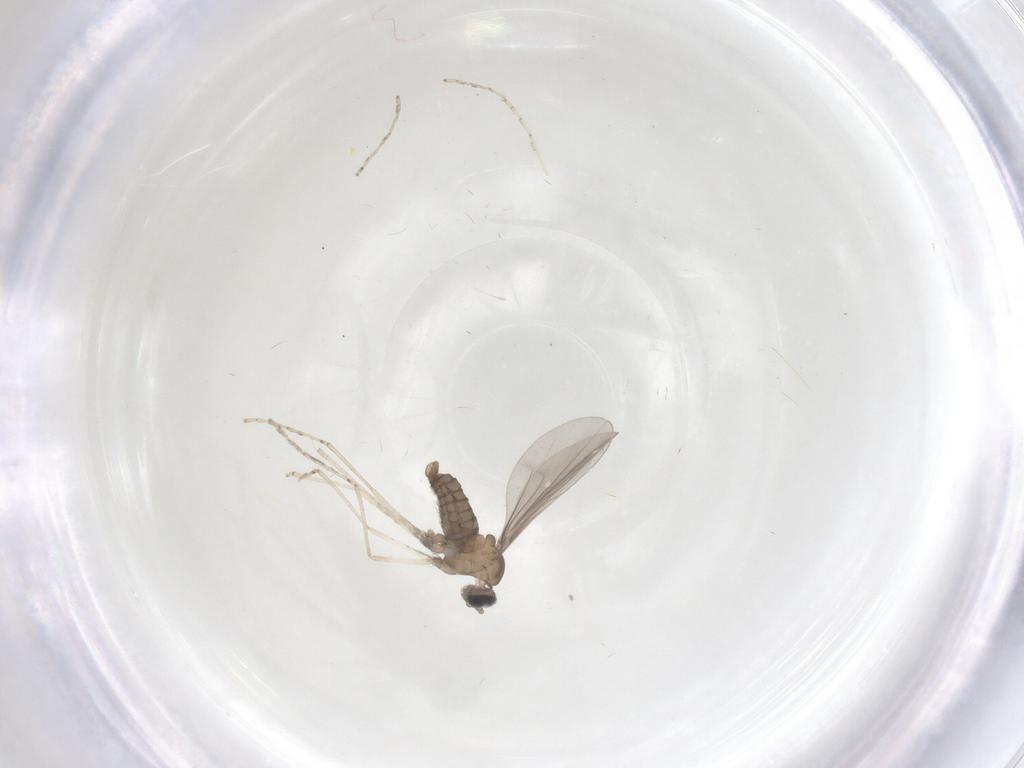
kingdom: Animalia
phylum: Arthropoda
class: Insecta
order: Diptera
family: Cecidomyiidae
